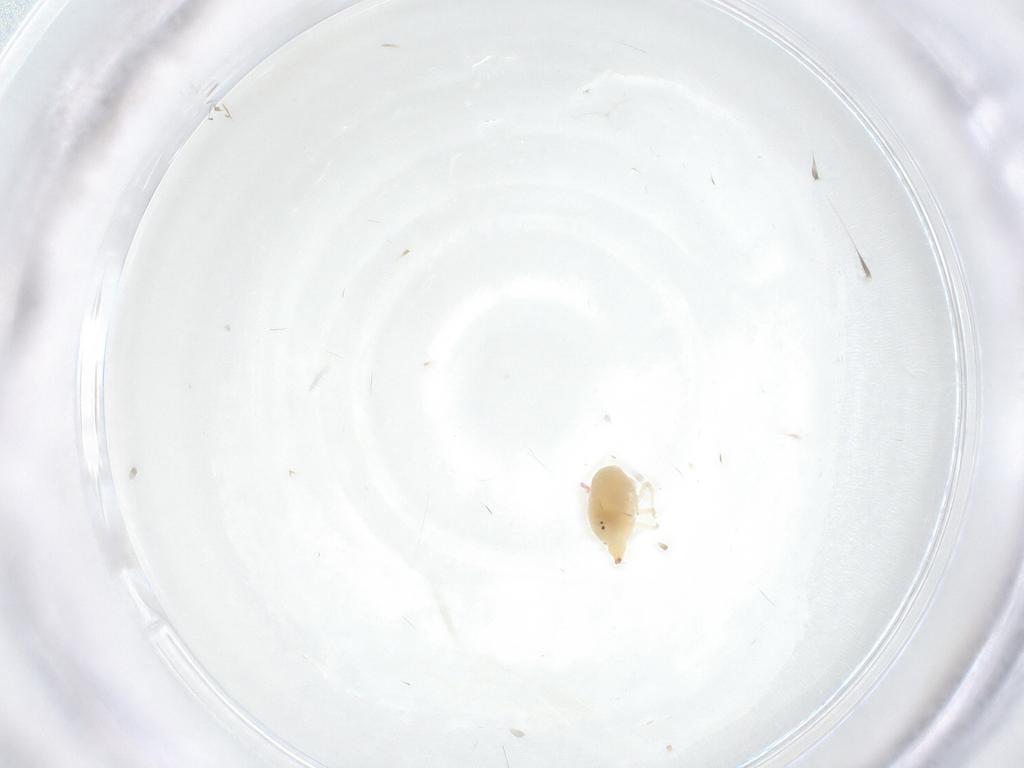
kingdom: Animalia
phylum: Arthropoda
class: Arachnida
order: Trombidiformes
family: Bdellidae
